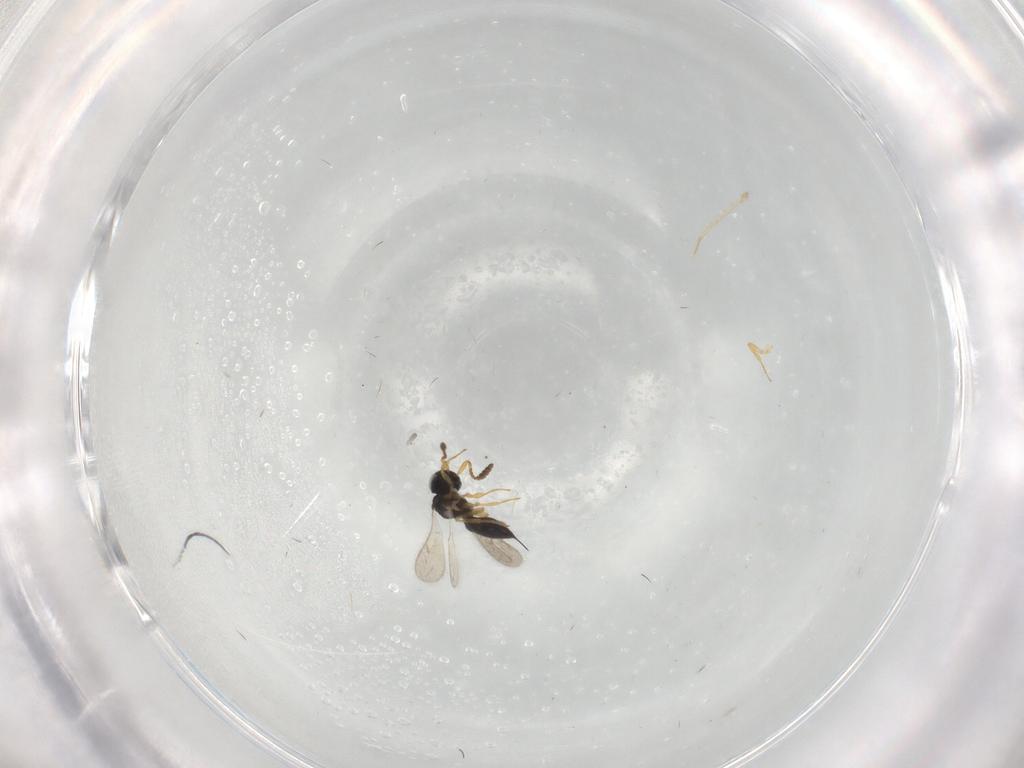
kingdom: Animalia
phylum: Arthropoda
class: Insecta
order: Hymenoptera
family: Scelionidae
